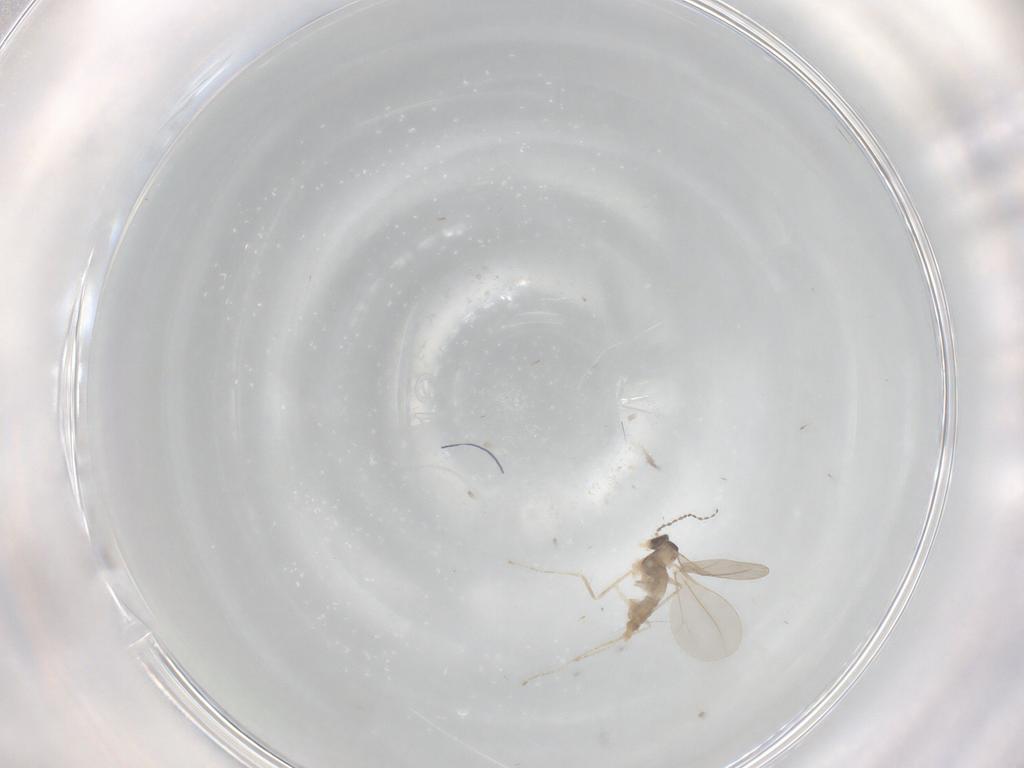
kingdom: Animalia
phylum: Arthropoda
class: Insecta
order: Diptera
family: Cecidomyiidae
